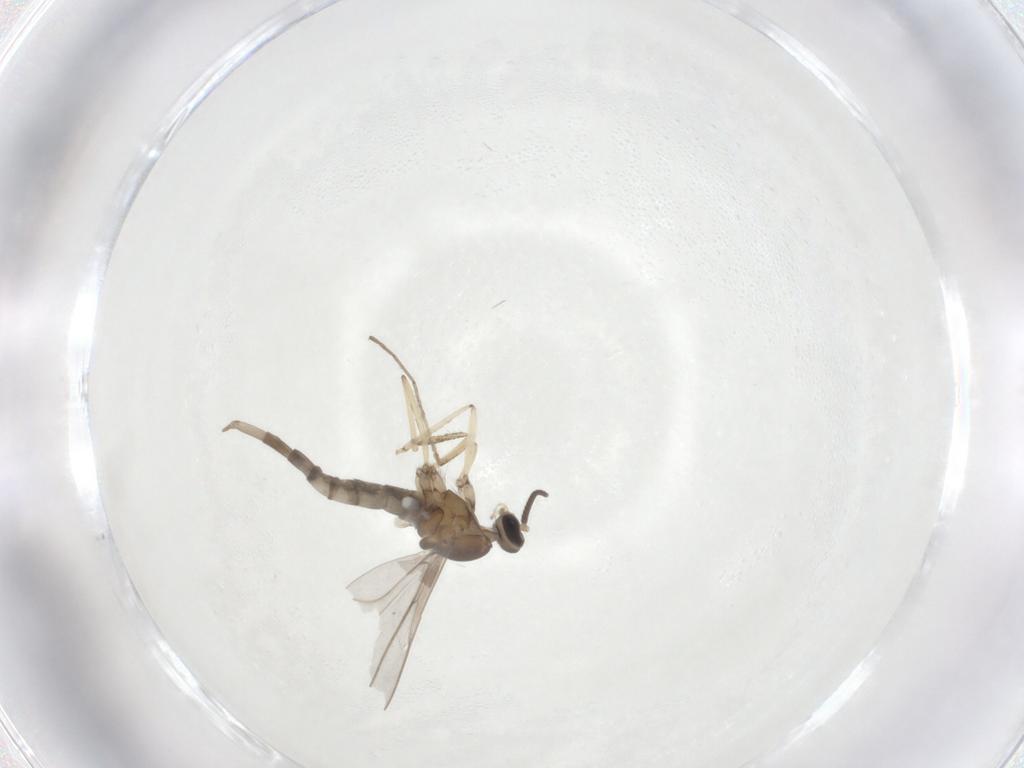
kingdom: Animalia
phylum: Arthropoda
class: Insecta
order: Diptera
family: Cecidomyiidae
